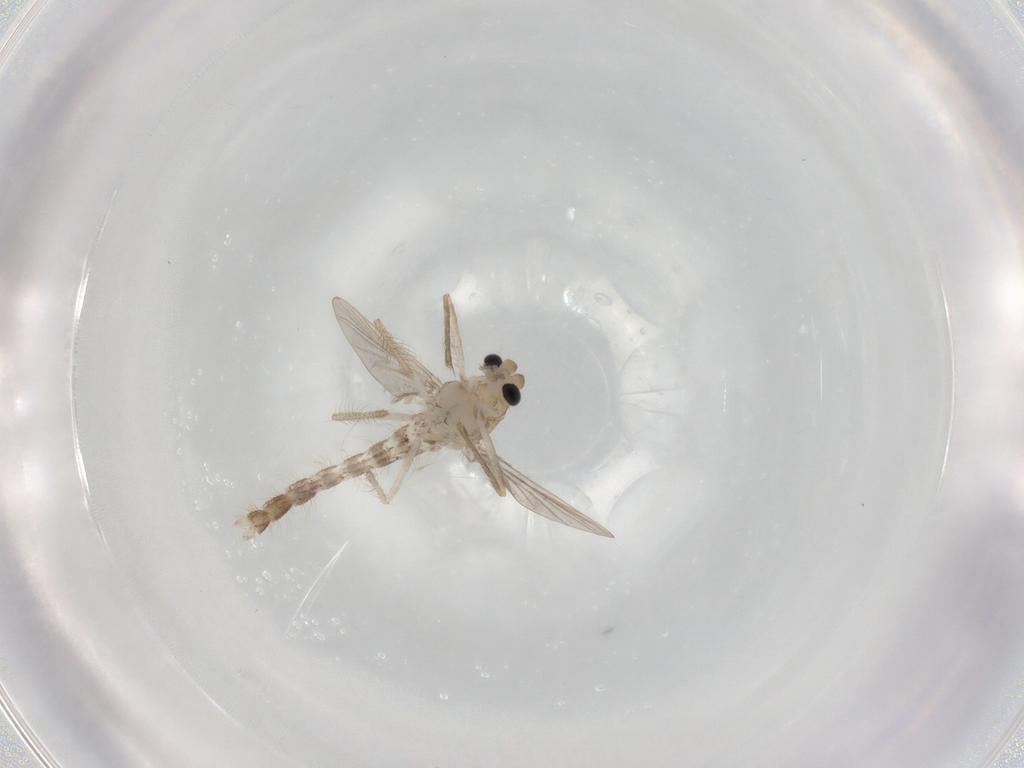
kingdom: Animalia
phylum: Arthropoda
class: Insecta
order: Diptera
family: Chironomidae
